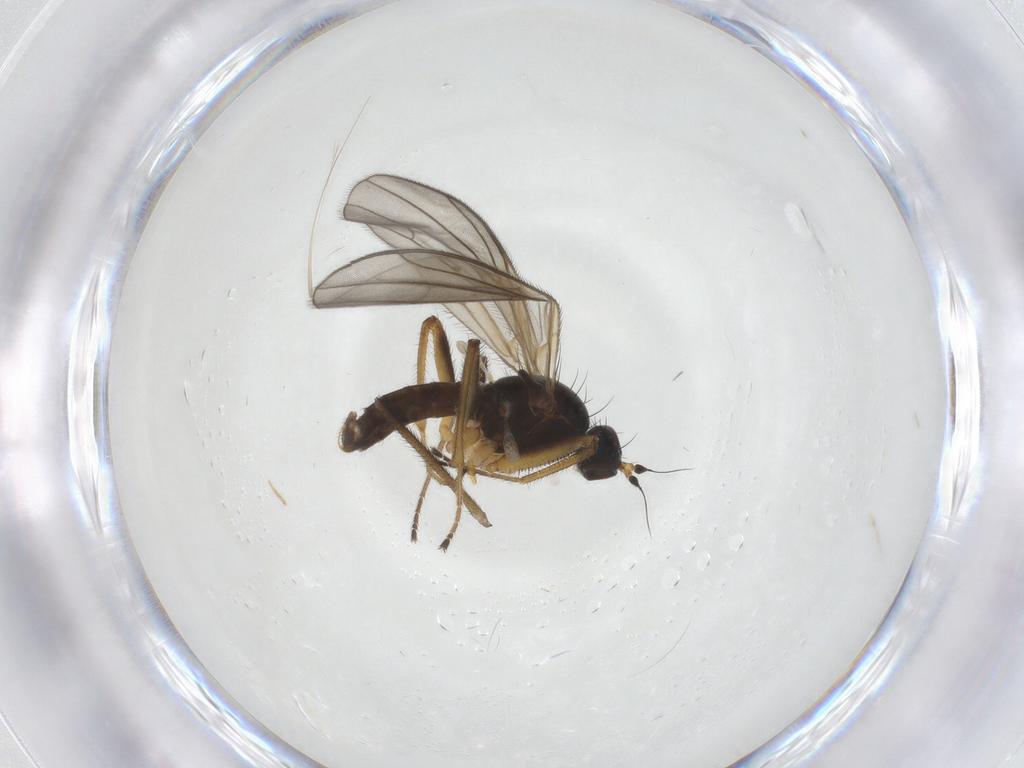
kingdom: Animalia
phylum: Arthropoda
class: Insecta
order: Diptera
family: Empididae
